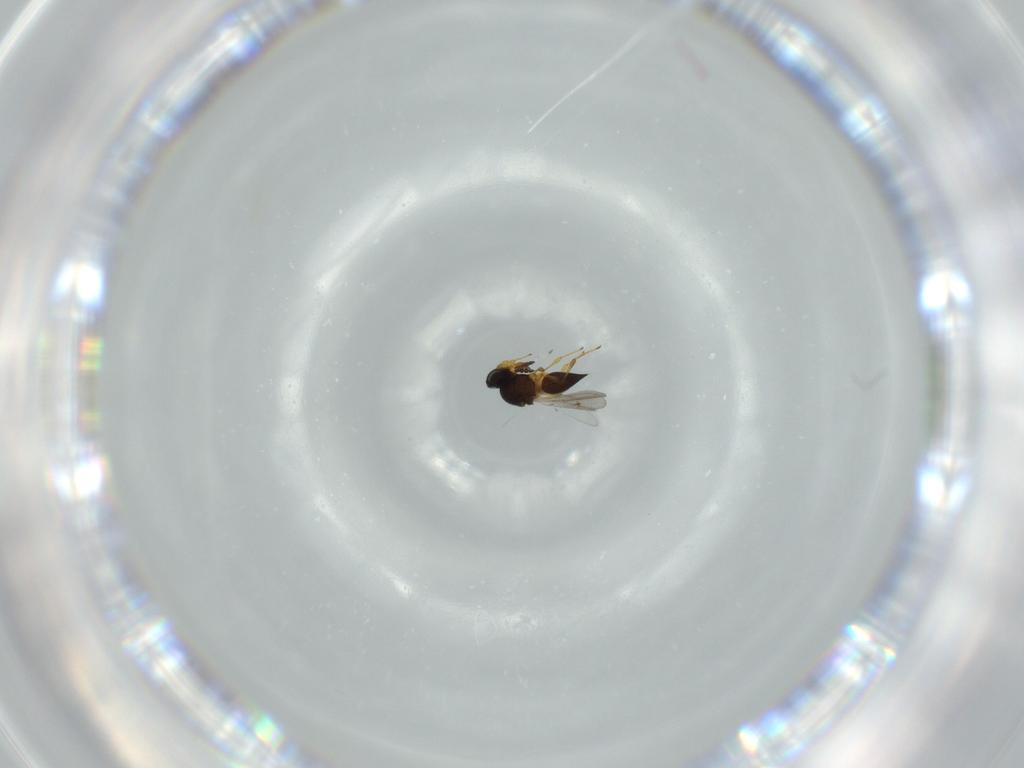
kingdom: Animalia
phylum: Arthropoda
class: Insecta
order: Hymenoptera
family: Platygastridae
